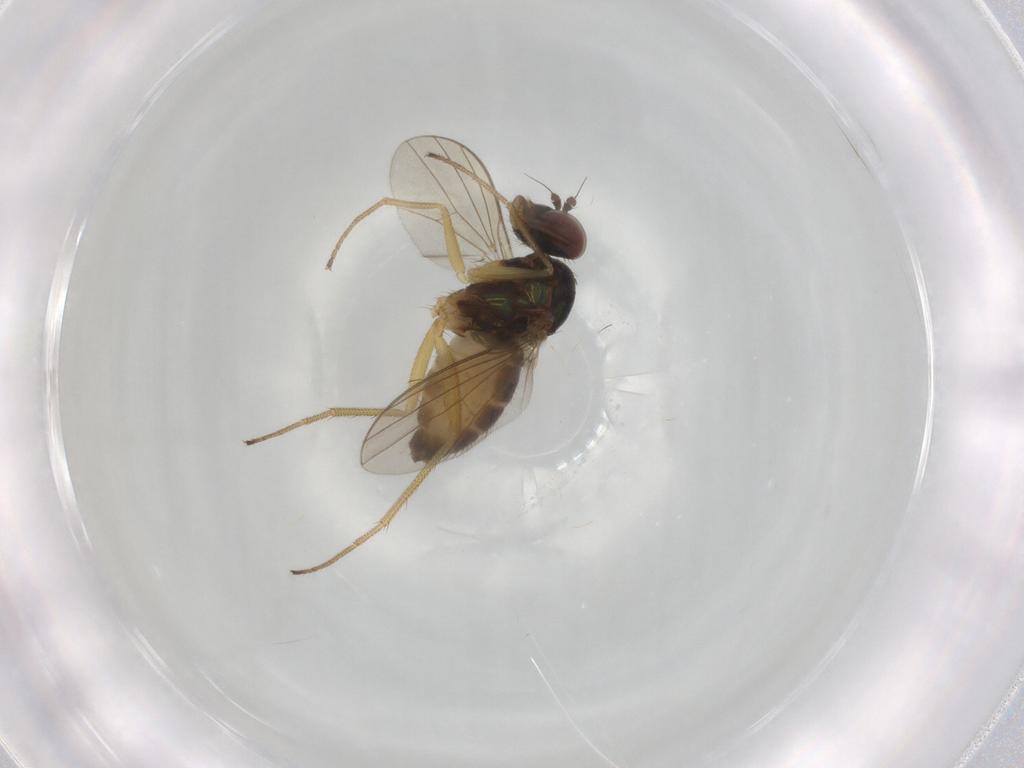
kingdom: Animalia
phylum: Arthropoda
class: Insecta
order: Diptera
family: Dolichopodidae
